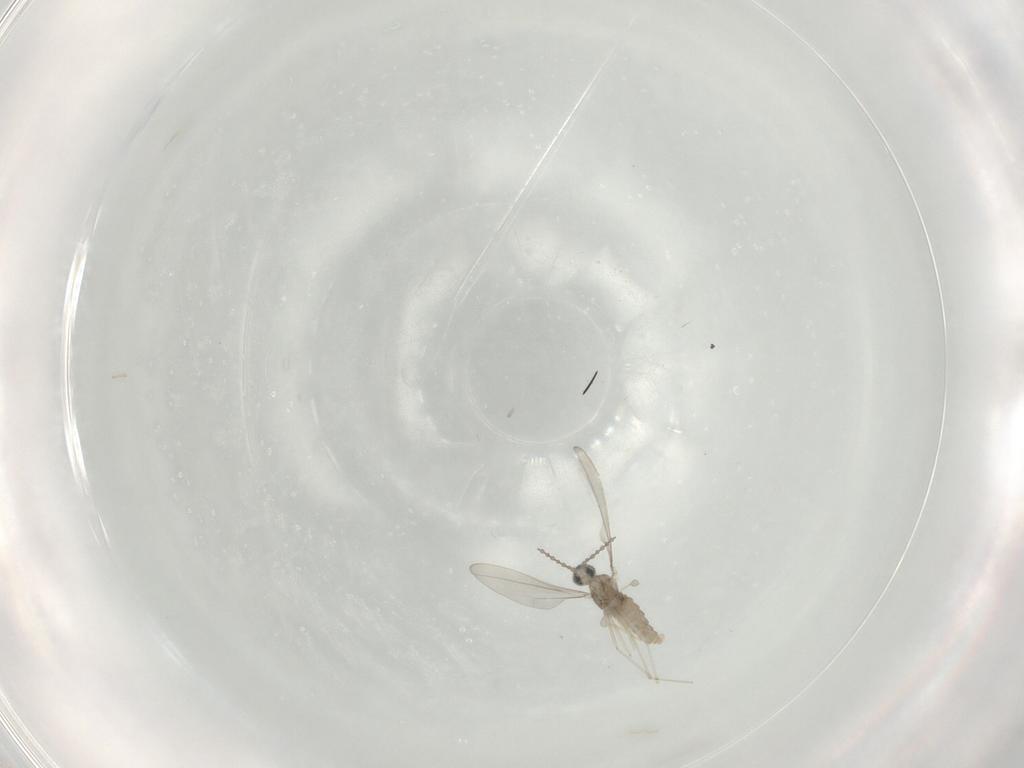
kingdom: Animalia
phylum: Arthropoda
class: Insecta
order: Diptera
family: Cecidomyiidae
